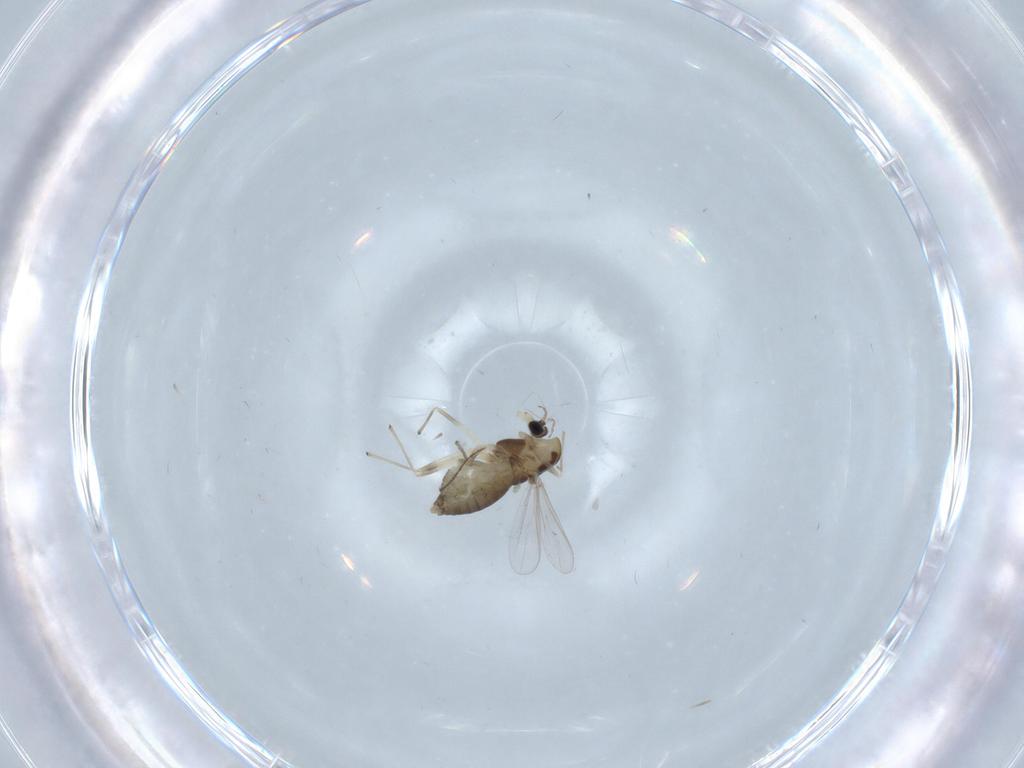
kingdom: Animalia
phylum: Arthropoda
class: Insecta
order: Diptera
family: Chironomidae
